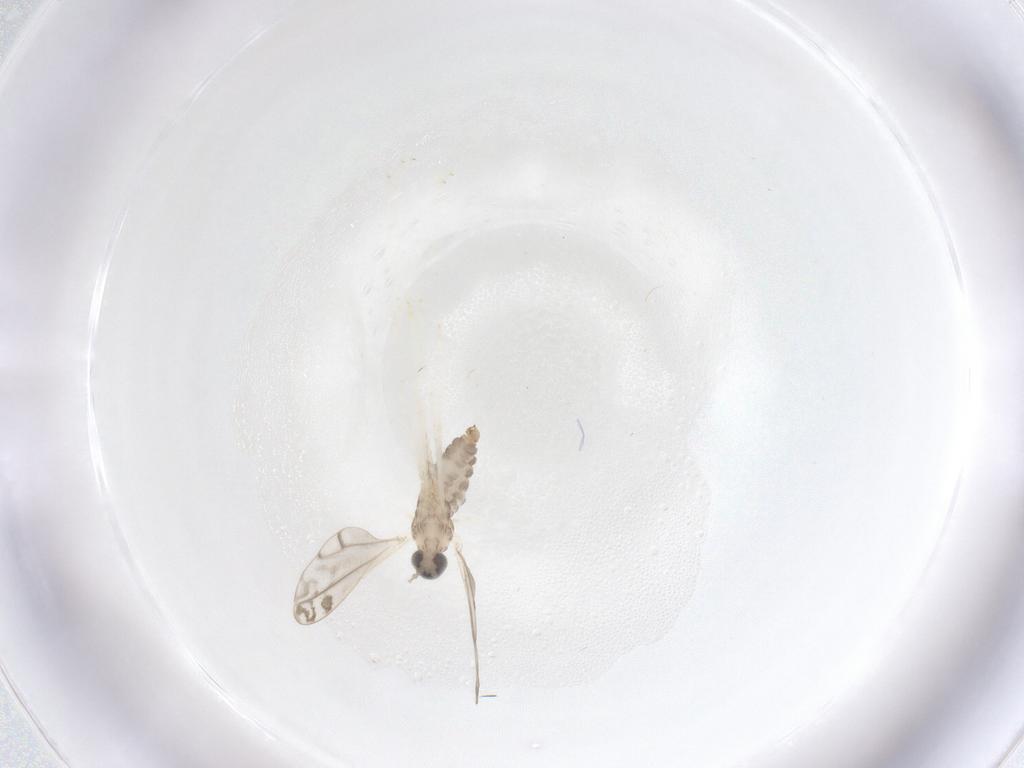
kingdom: Animalia
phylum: Arthropoda
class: Insecta
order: Diptera
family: Cecidomyiidae
